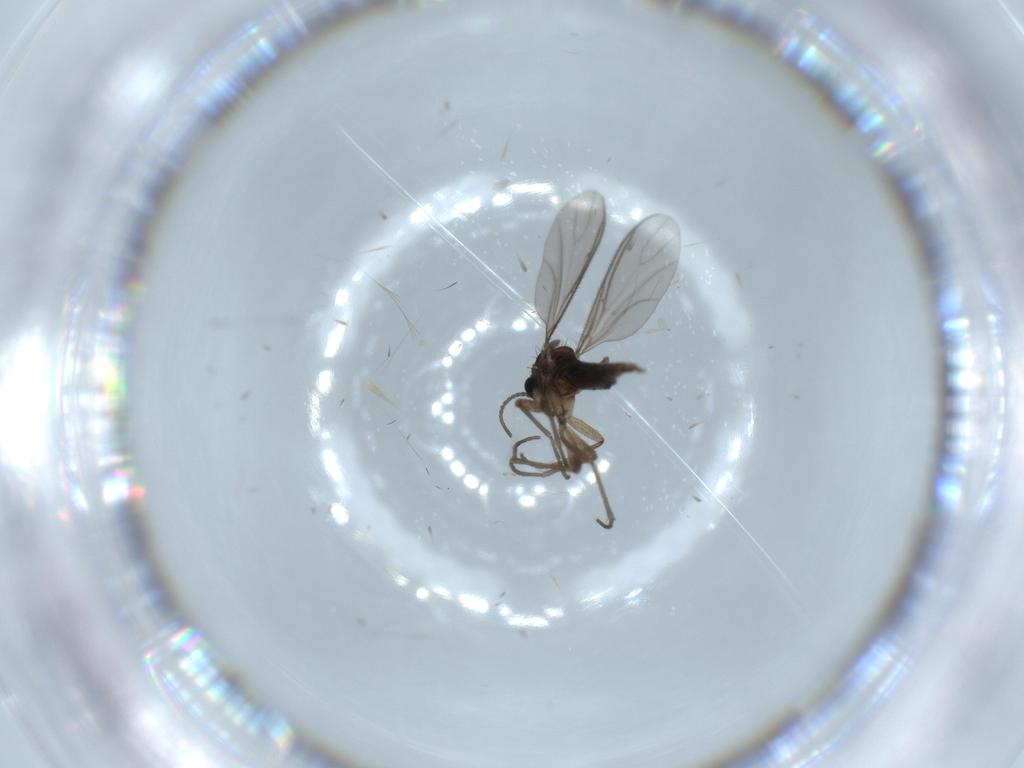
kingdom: Animalia
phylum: Arthropoda
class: Insecta
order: Diptera
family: Sciaridae
